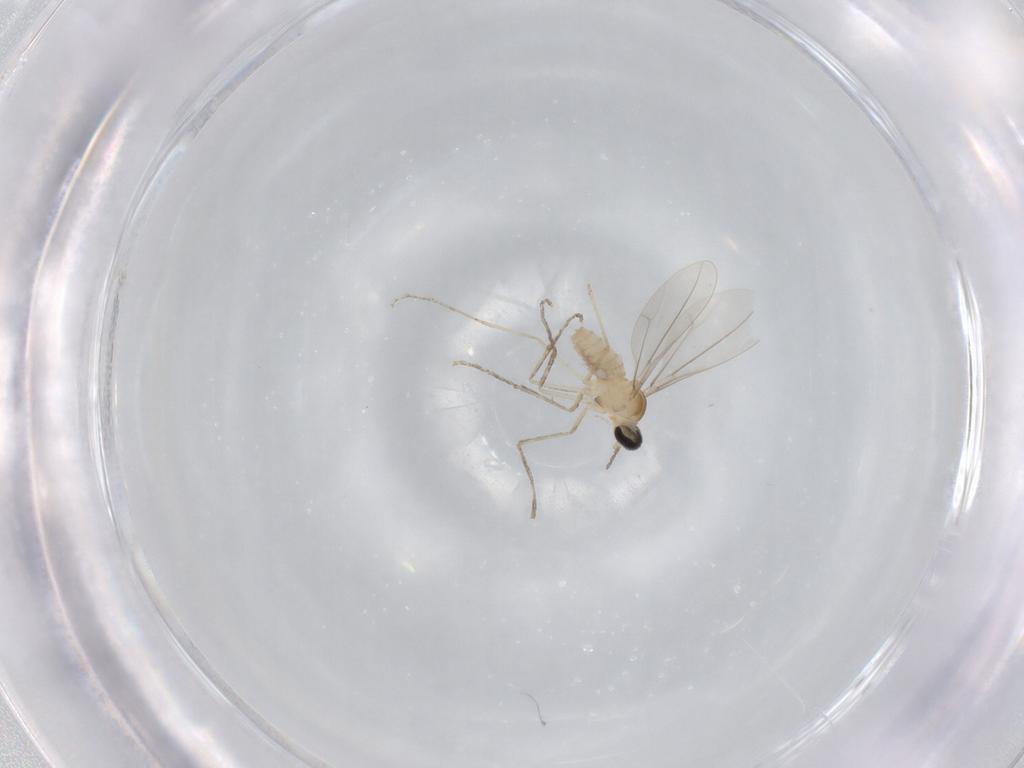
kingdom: Animalia
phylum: Arthropoda
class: Insecta
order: Diptera
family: Cecidomyiidae
